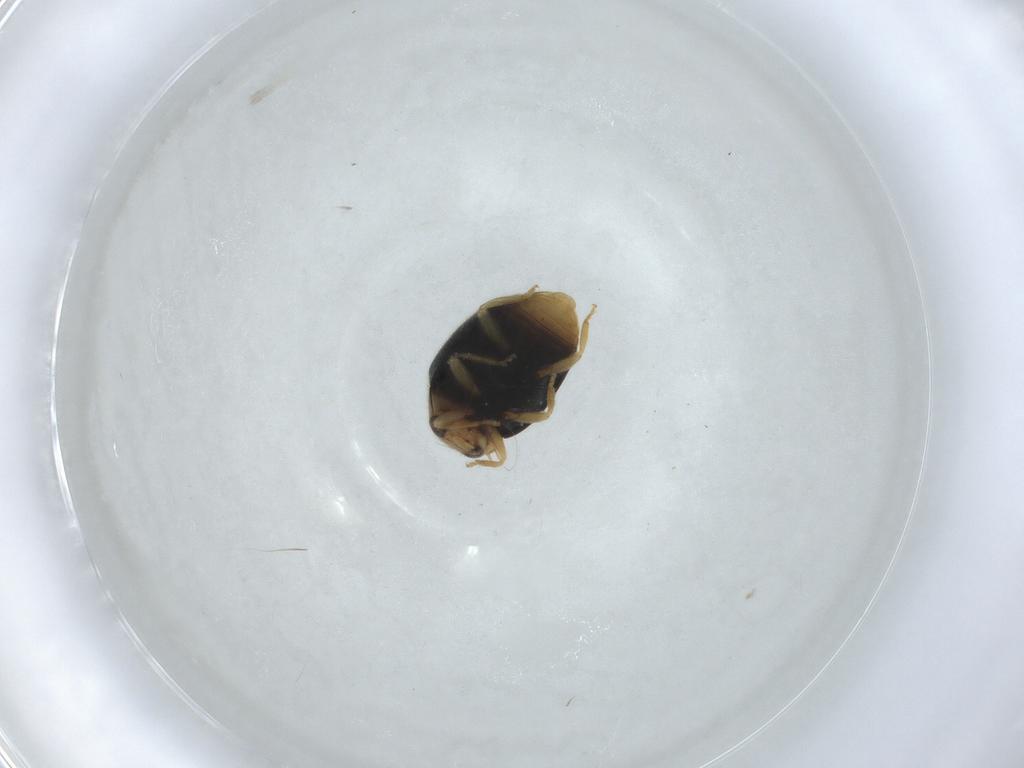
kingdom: Animalia
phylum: Arthropoda
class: Insecta
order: Coleoptera
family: Coccinellidae
